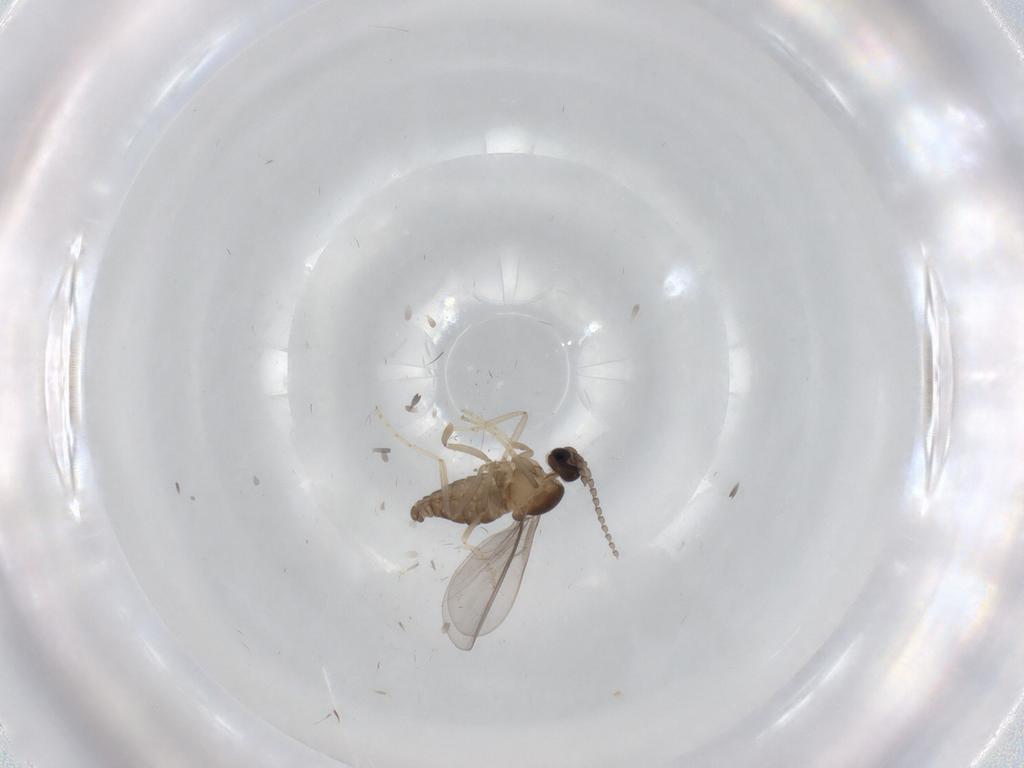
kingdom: Animalia
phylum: Arthropoda
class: Insecta
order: Diptera
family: Cecidomyiidae
